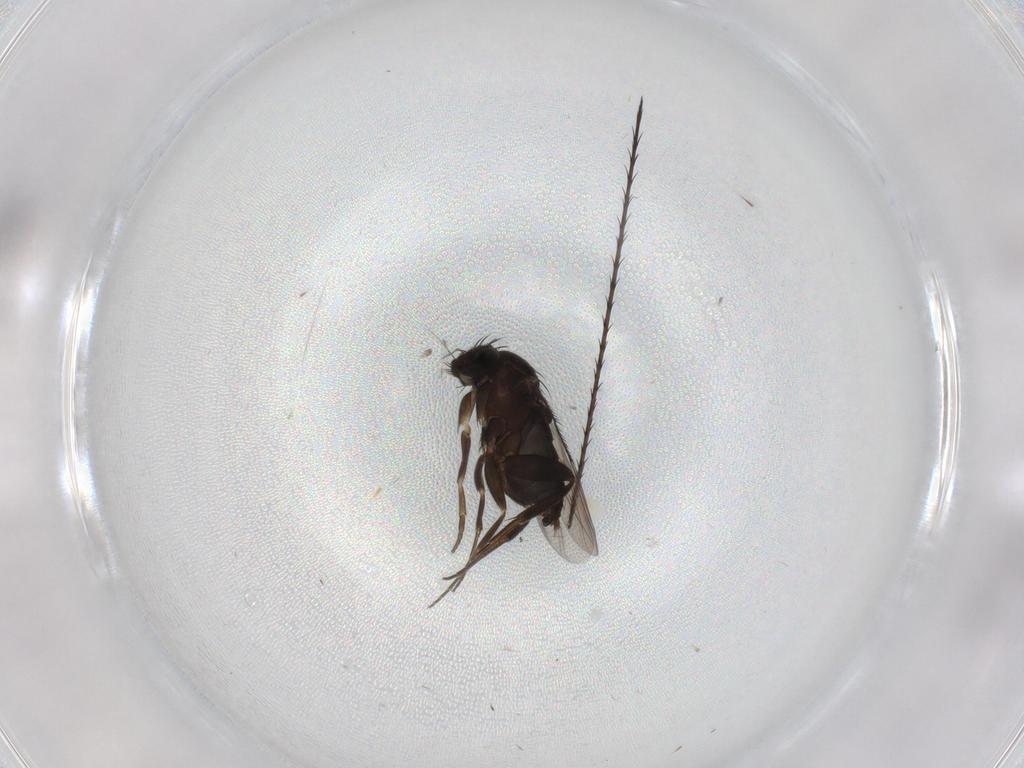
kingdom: Animalia
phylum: Arthropoda
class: Insecta
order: Diptera
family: Phoridae
